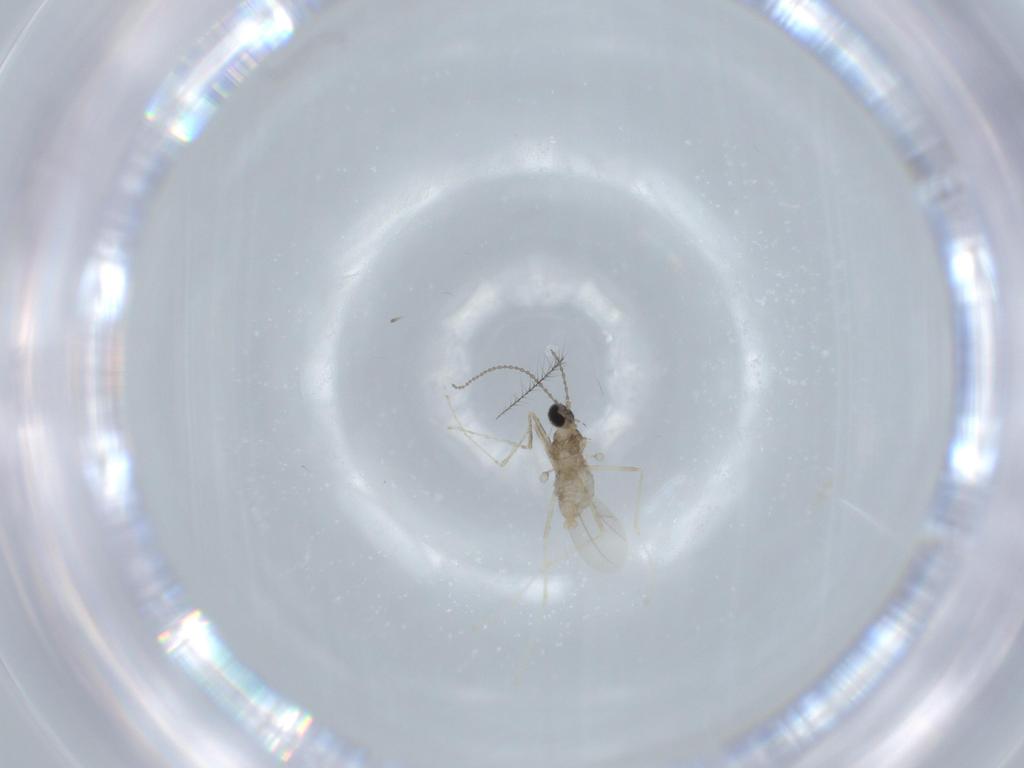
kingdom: Animalia
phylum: Arthropoda
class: Insecta
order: Diptera
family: Cecidomyiidae
